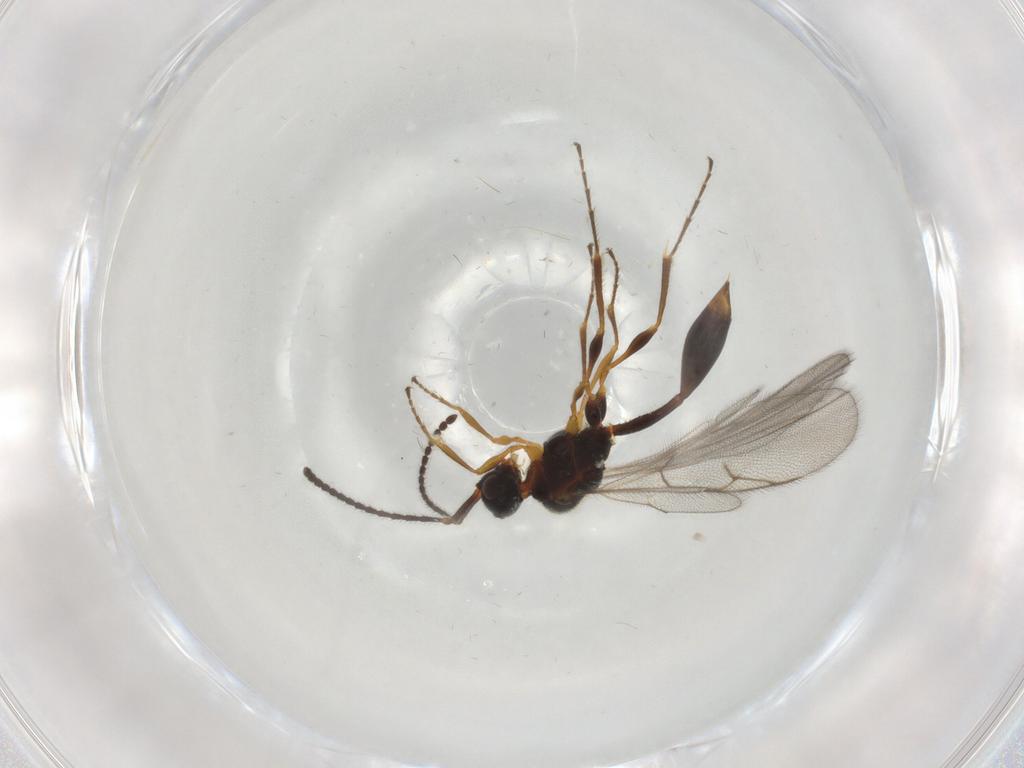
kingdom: Animalia
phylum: Arthropoda
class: Insecta
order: Hymenoptera
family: Diapriidae
